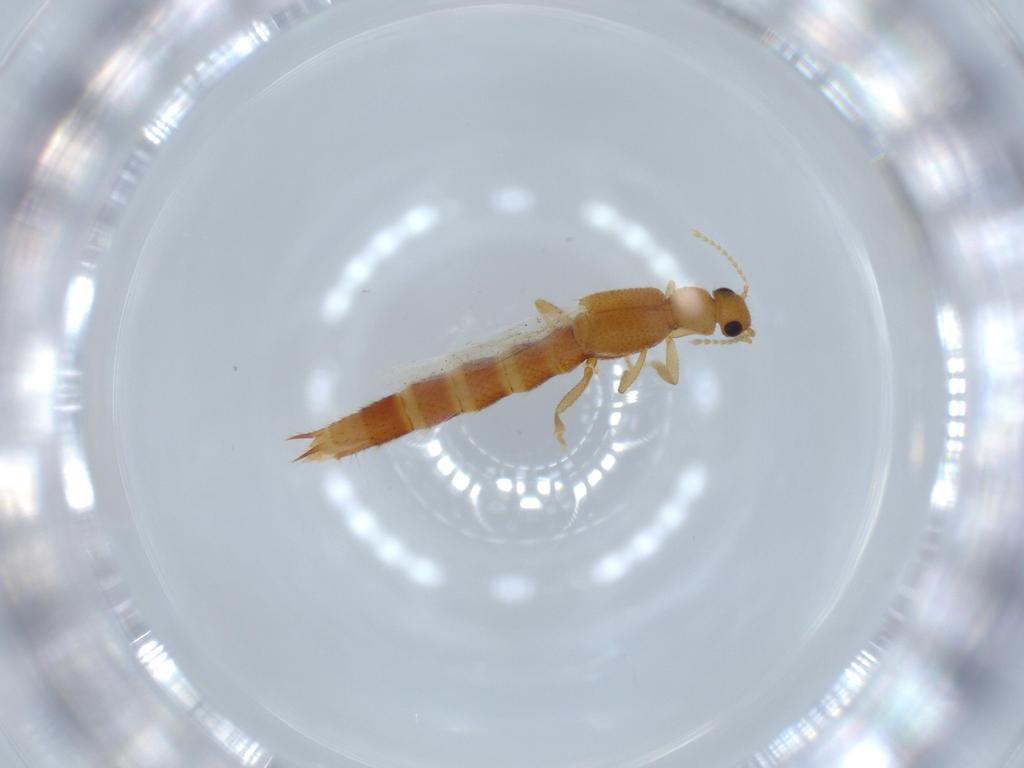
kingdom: Animalia
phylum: Arthropoda
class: Insecta
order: Coleoptera
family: Staphylinidae
